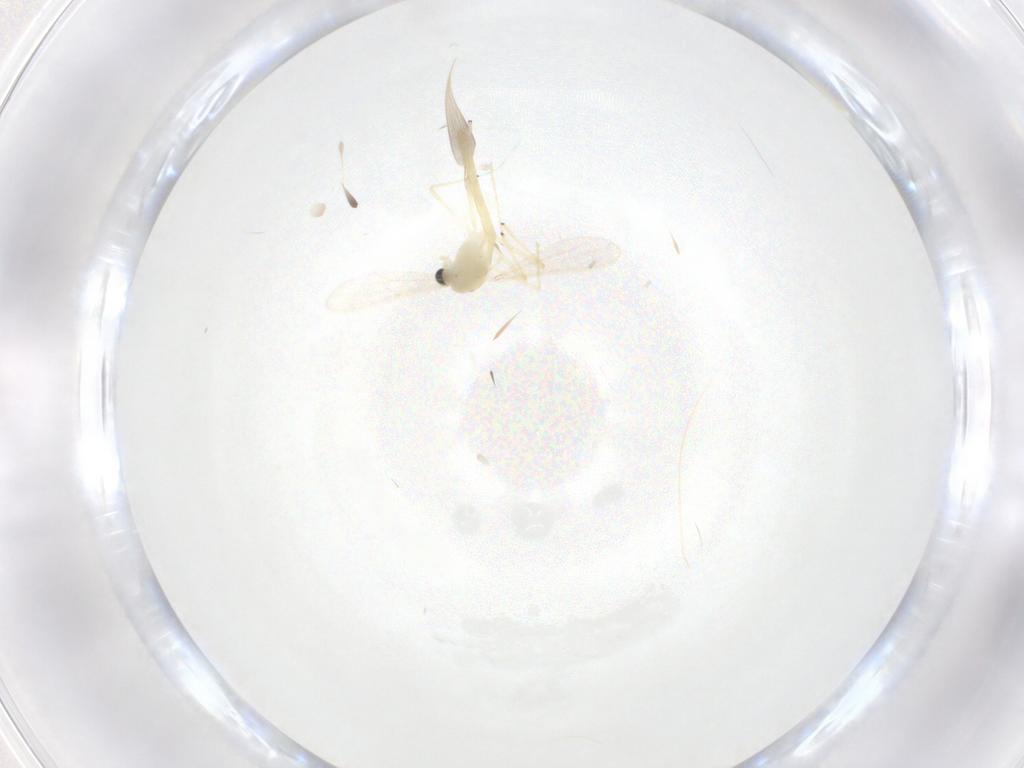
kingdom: Animalia
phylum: Arthropoda
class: Insecta
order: Diptera
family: Chironomidae
